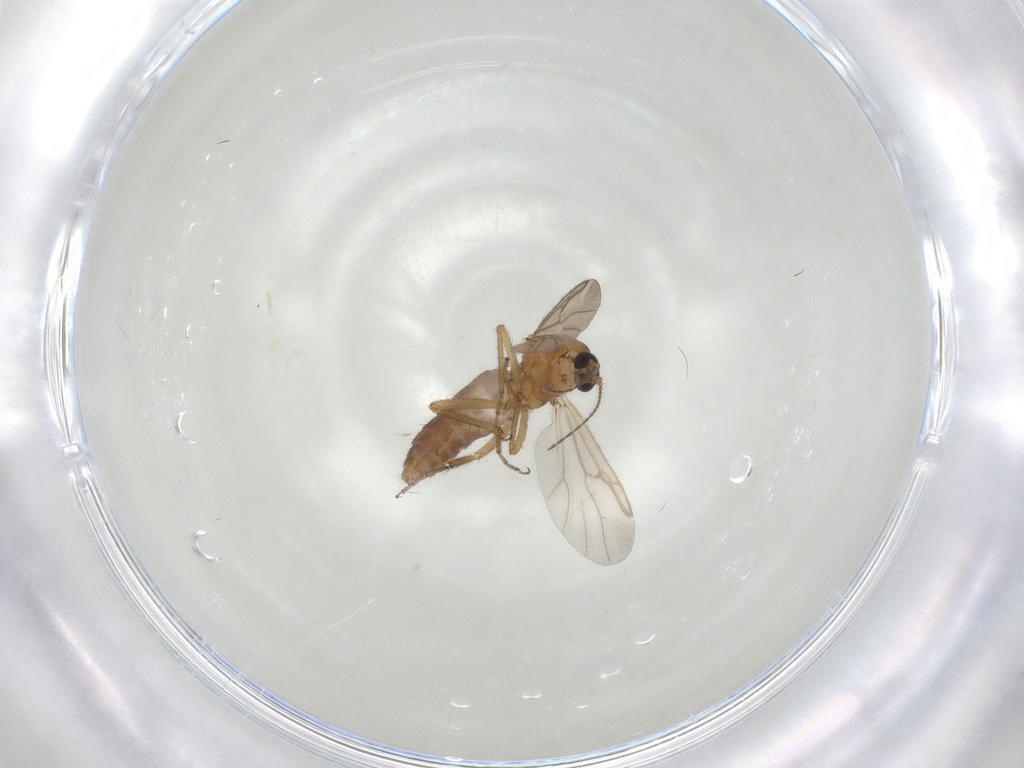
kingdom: Animalia
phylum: Arthropoda
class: Insecta
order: Diptera
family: Ceratopogonidae
